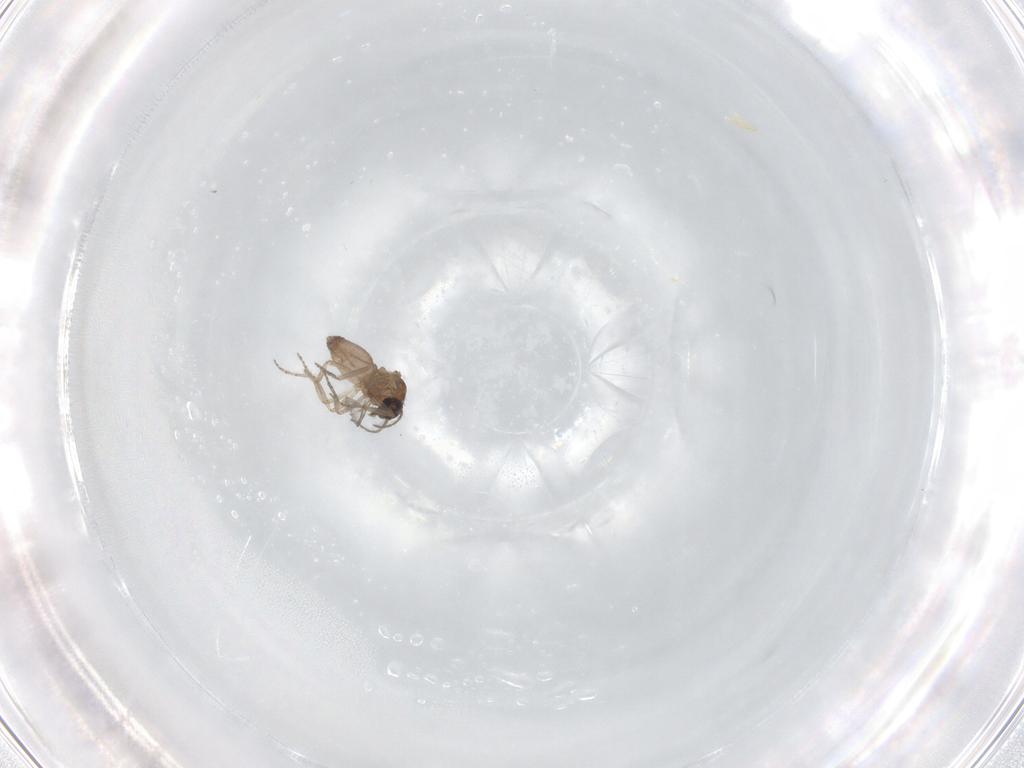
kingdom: Animalia
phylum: Arthropoda
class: Insecta
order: Diptera
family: Sphaeroceridae
